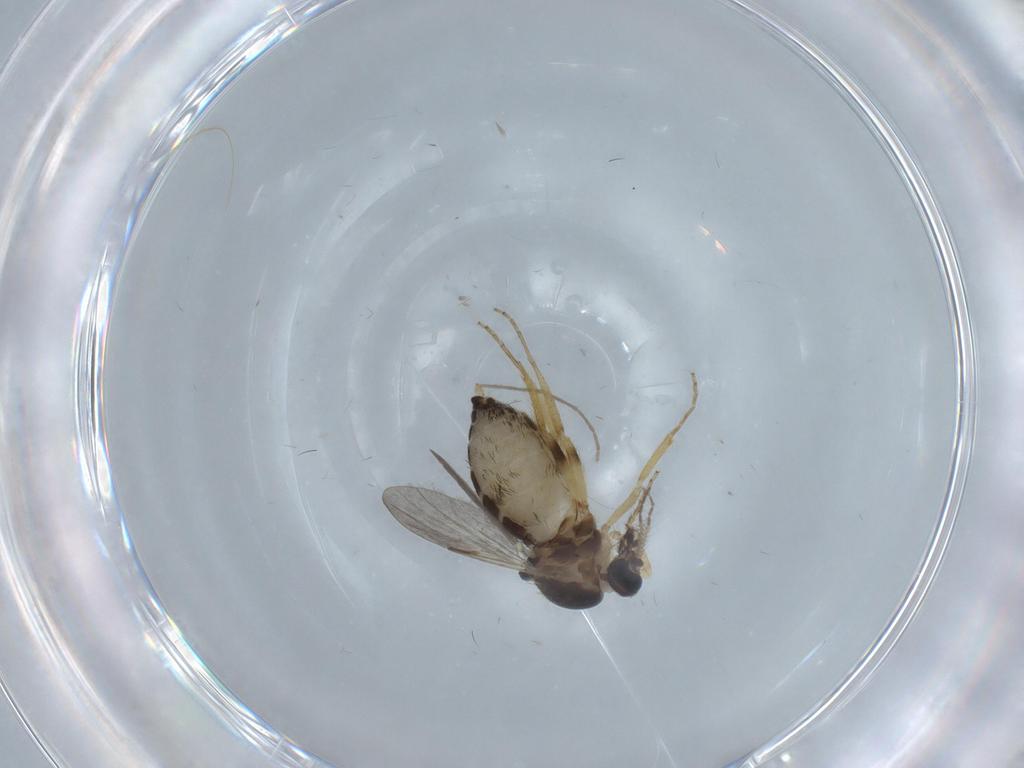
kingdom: Animalia
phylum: Arthropoda
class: Insecta
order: Diptera
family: Ceratopogonidae
